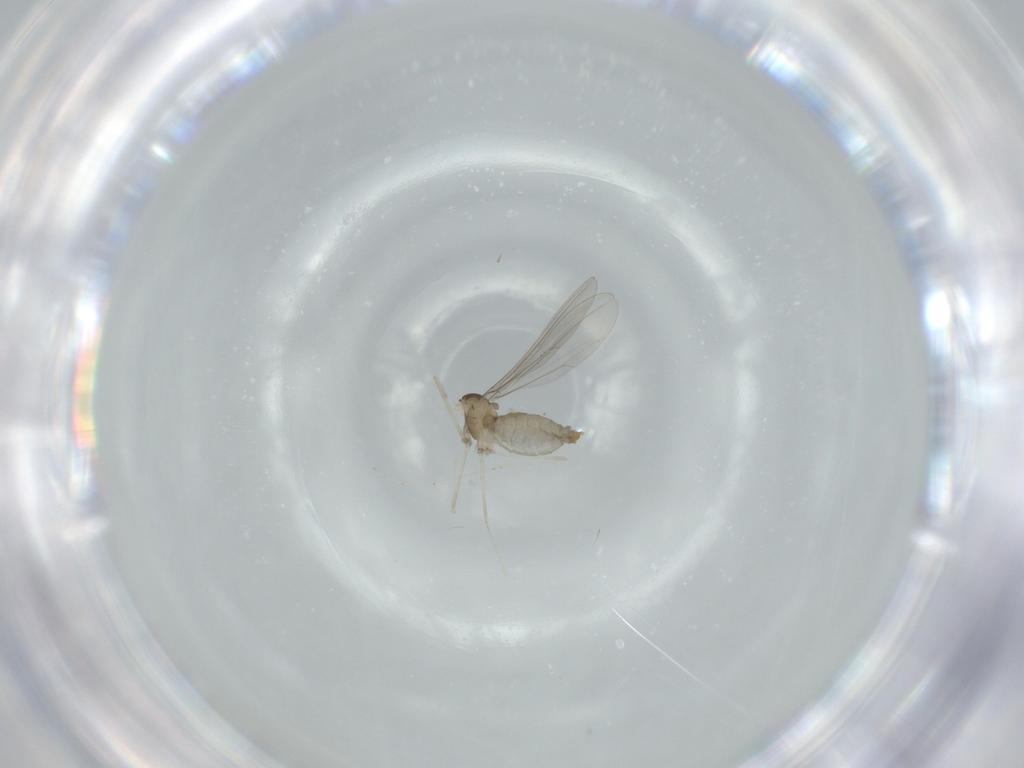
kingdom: Animalia
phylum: Arthropoda
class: Insecta
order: Diptera
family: Cecidomyiidae
